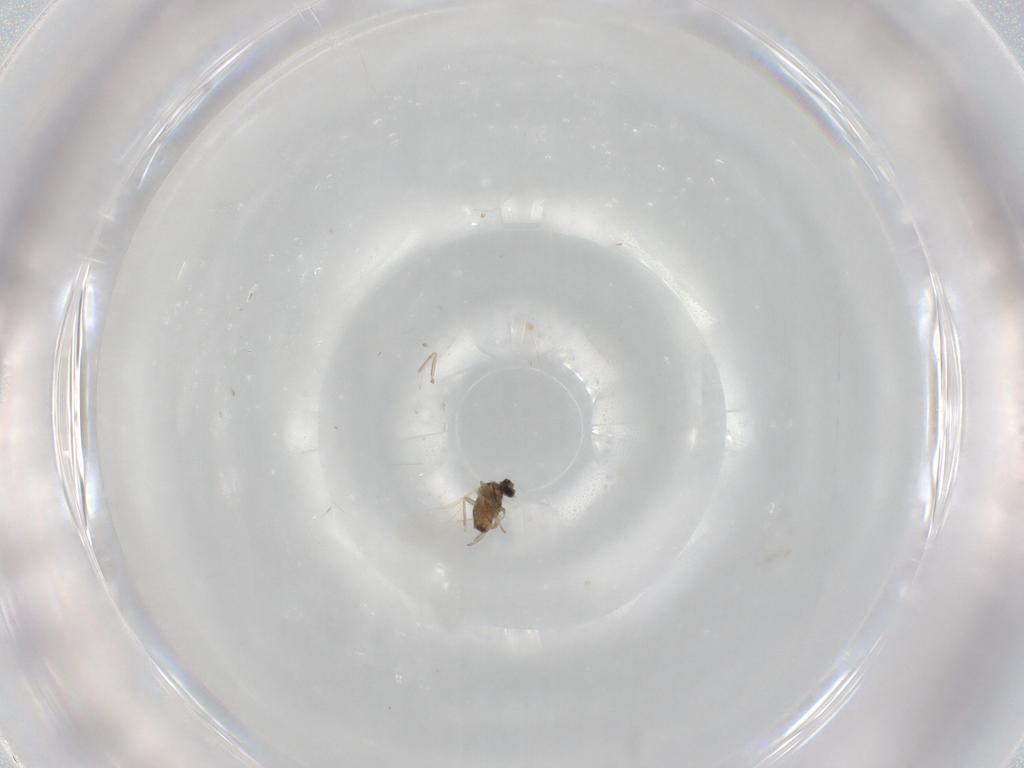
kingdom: Animalia
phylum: Arthropoda
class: Insecta
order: Diptera
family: Cecidomyiidae
